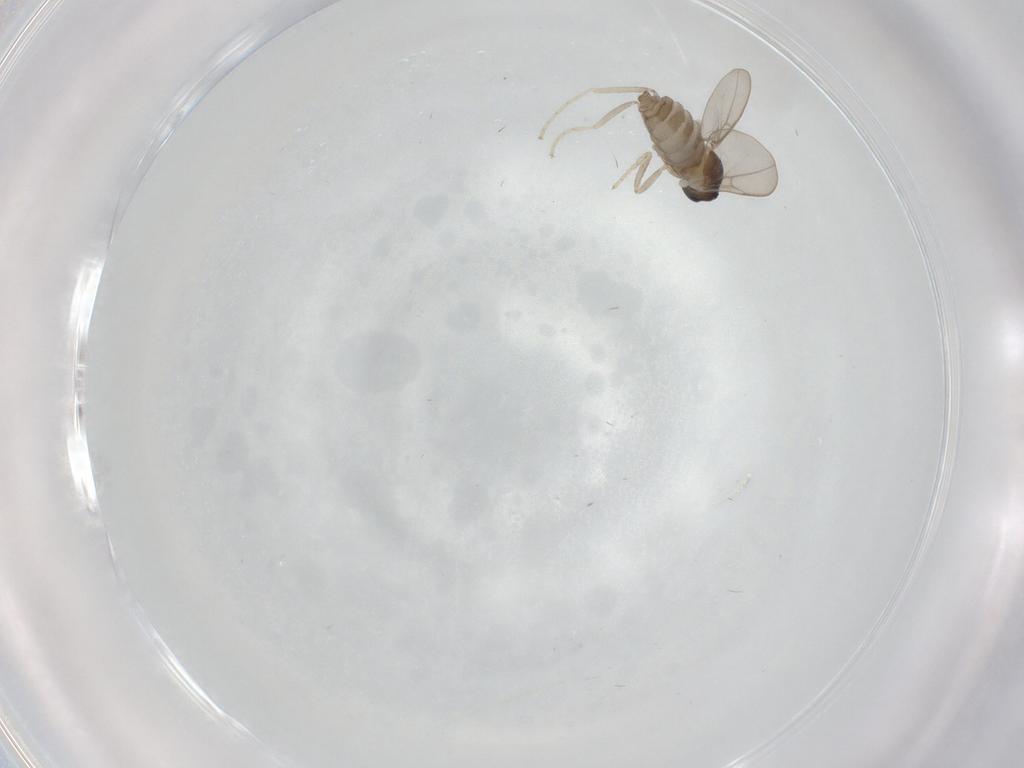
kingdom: Animalia
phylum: Arthropoda
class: Insecta
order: Diptera
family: Cecidomyiidae
